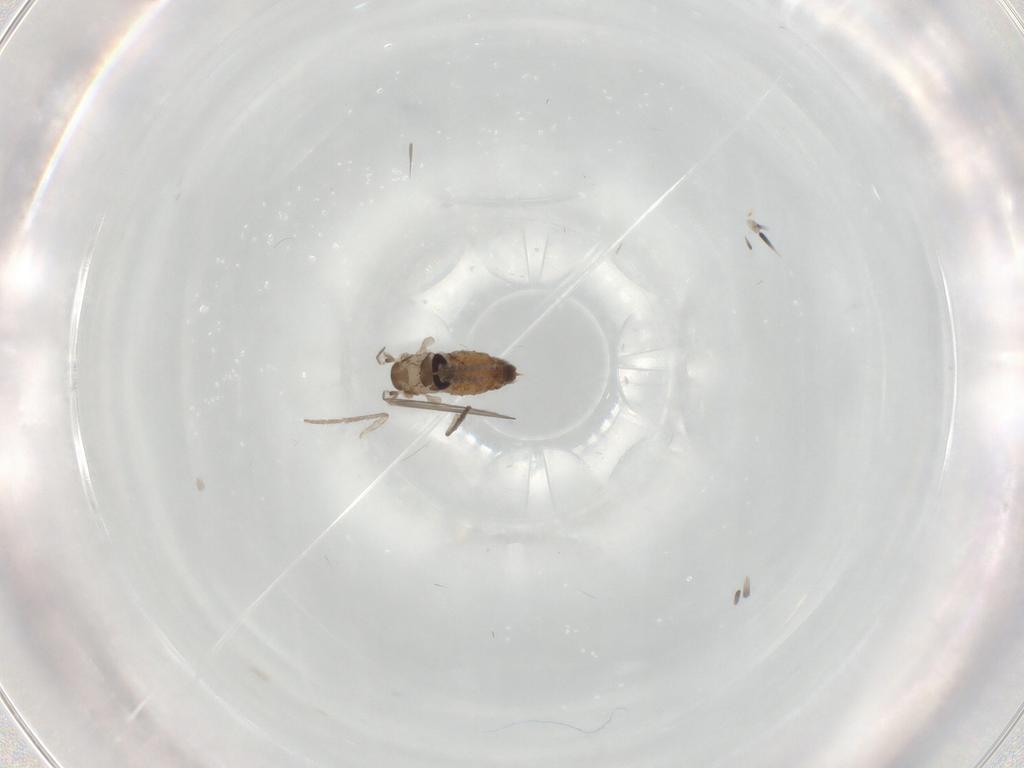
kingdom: Animalia
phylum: Arthropoda
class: Insecta
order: Diptera
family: Psychodidae
